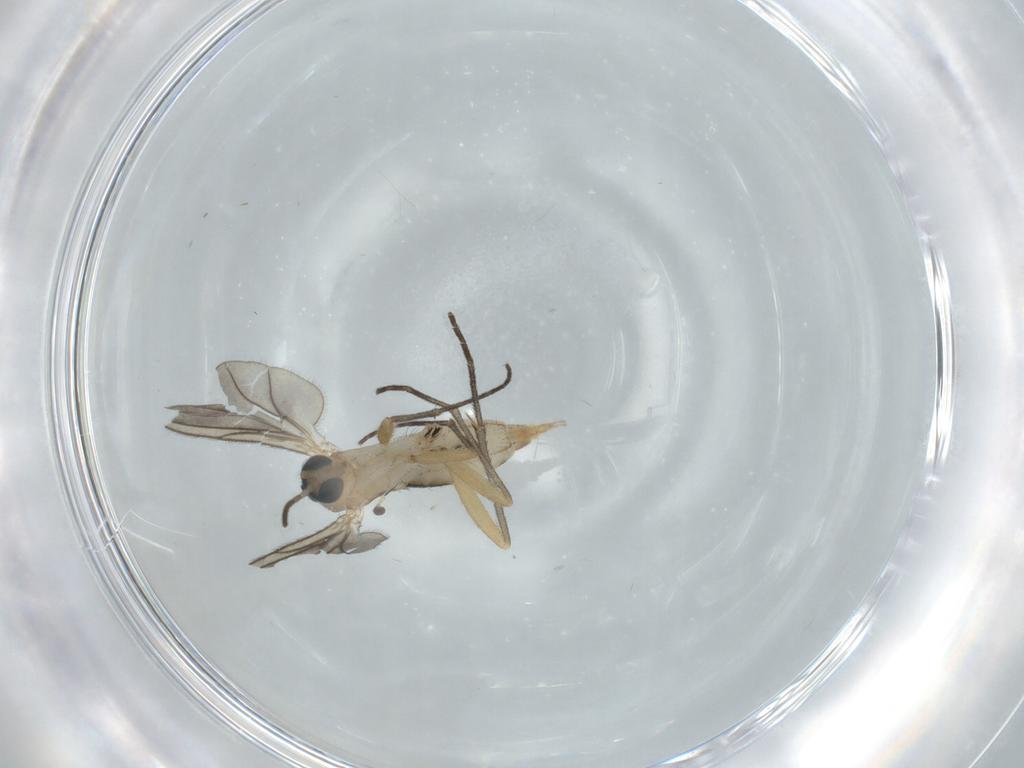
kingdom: Animalia
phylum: Arthropoda
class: Insecta
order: Diptera
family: Sciaridae
